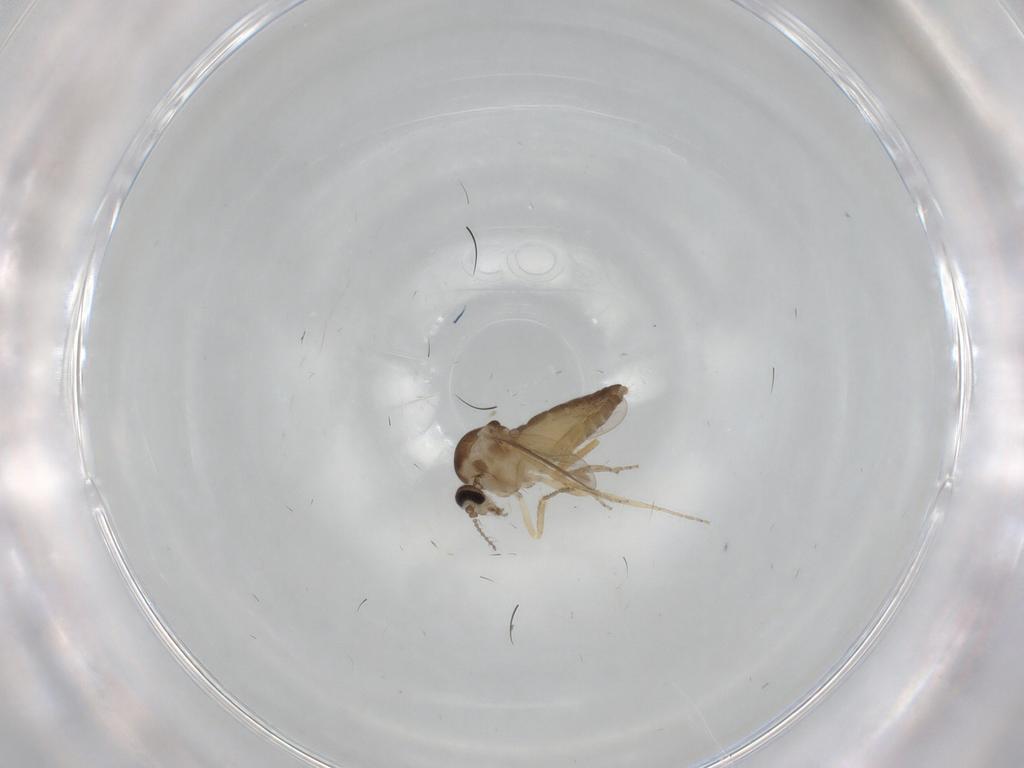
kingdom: Animalia
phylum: Arthropoda
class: Insecta
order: Diptera
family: Ceratopogonidae
